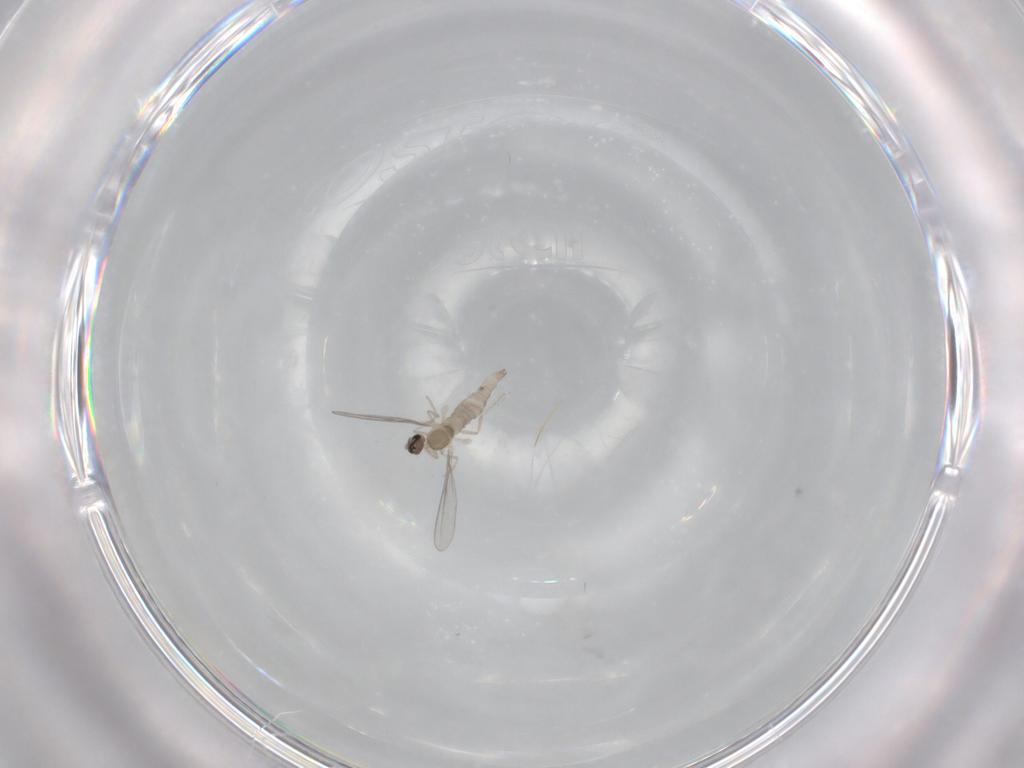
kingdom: Animalia
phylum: Arthropoda
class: Insecta
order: Diptera
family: Cecidomyiidae
